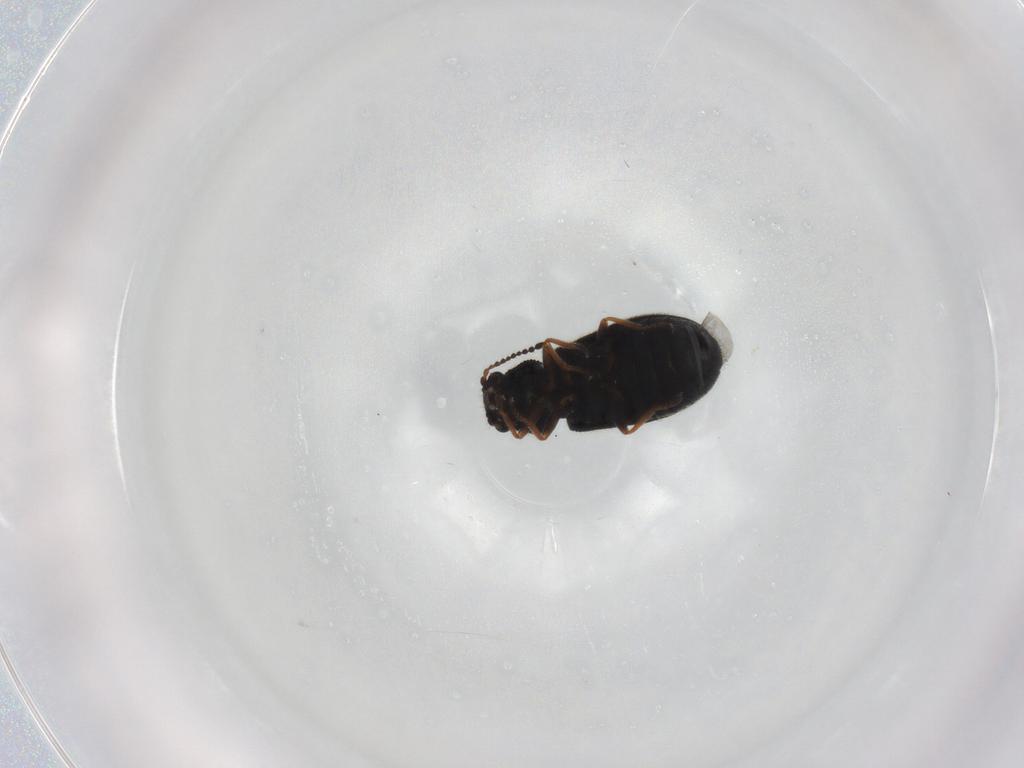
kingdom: Animalia
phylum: Arthropoda
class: Insecta
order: Coleoptera
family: Melyridae
